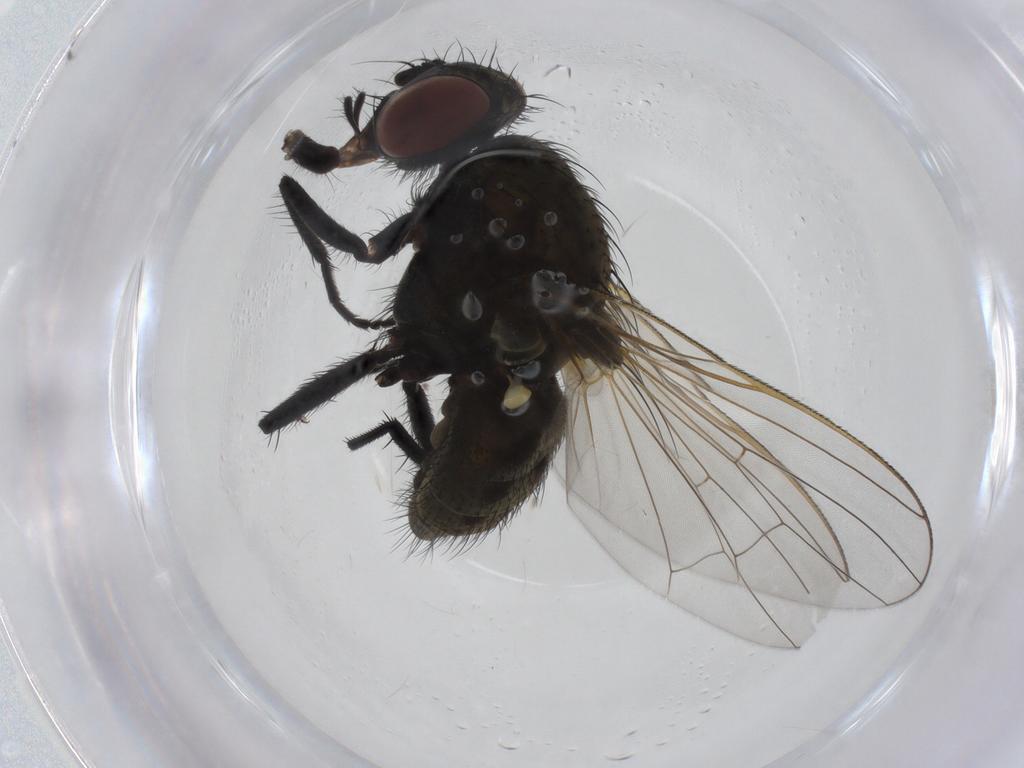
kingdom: Animalia
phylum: Arthropoda
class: Insecta
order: Diptera
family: Anthomyiidae
